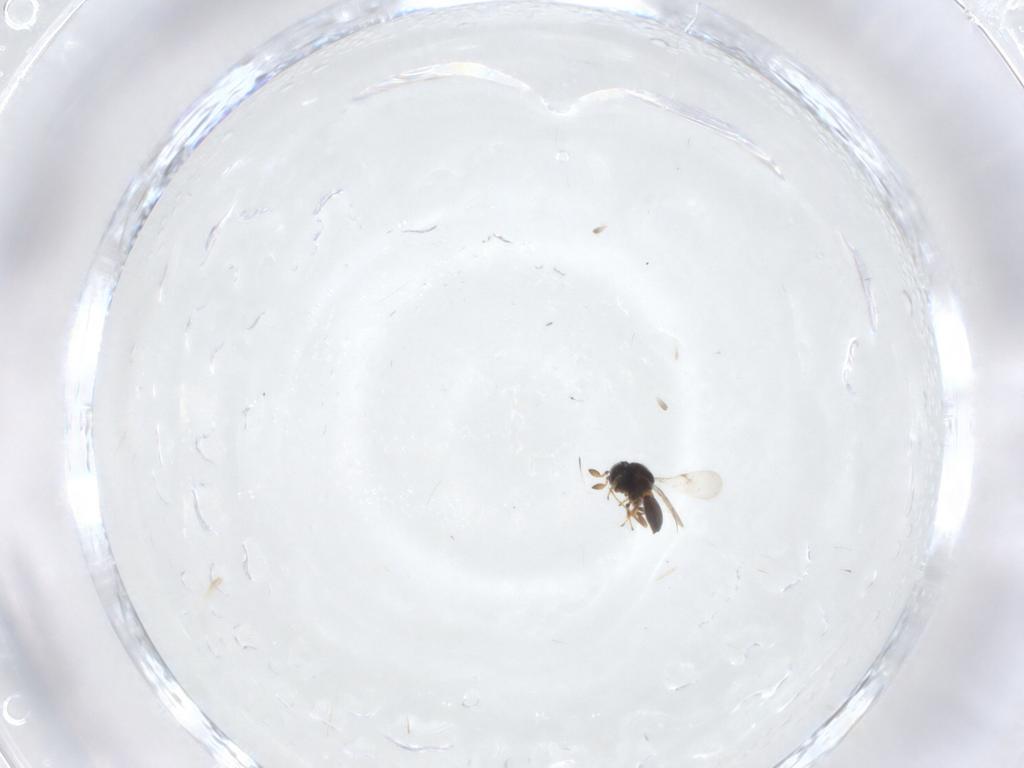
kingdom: Animalia
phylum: Arthropoda
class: Insecta
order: Hymenoptera
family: Scelionidae
